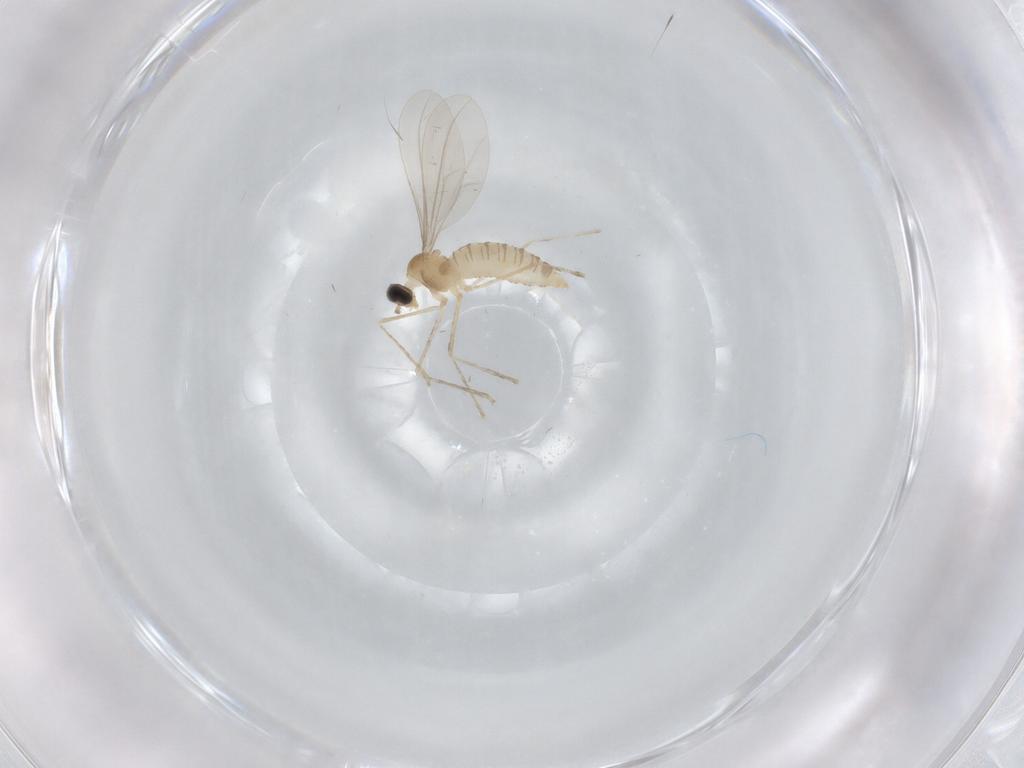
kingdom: Animalia
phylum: Arthropoda
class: Insecta
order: Diptera
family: Cecidomyiidae
